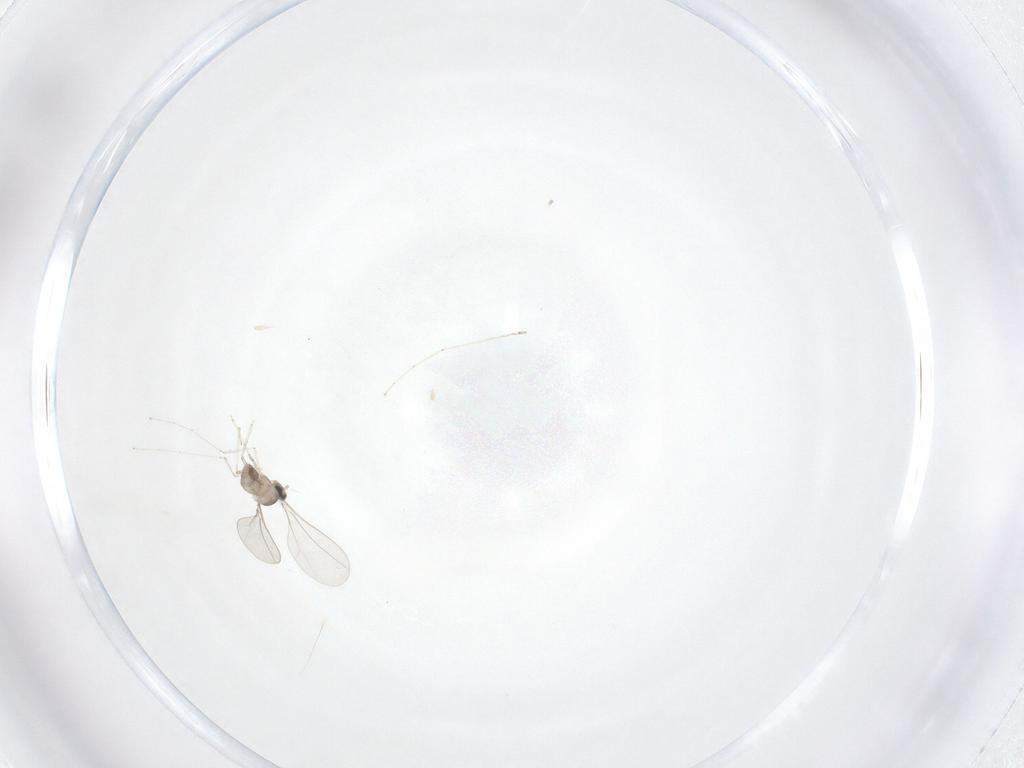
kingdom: Animalia
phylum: Arthropoda
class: Insecta
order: Diptera
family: Cecidomyiidae
